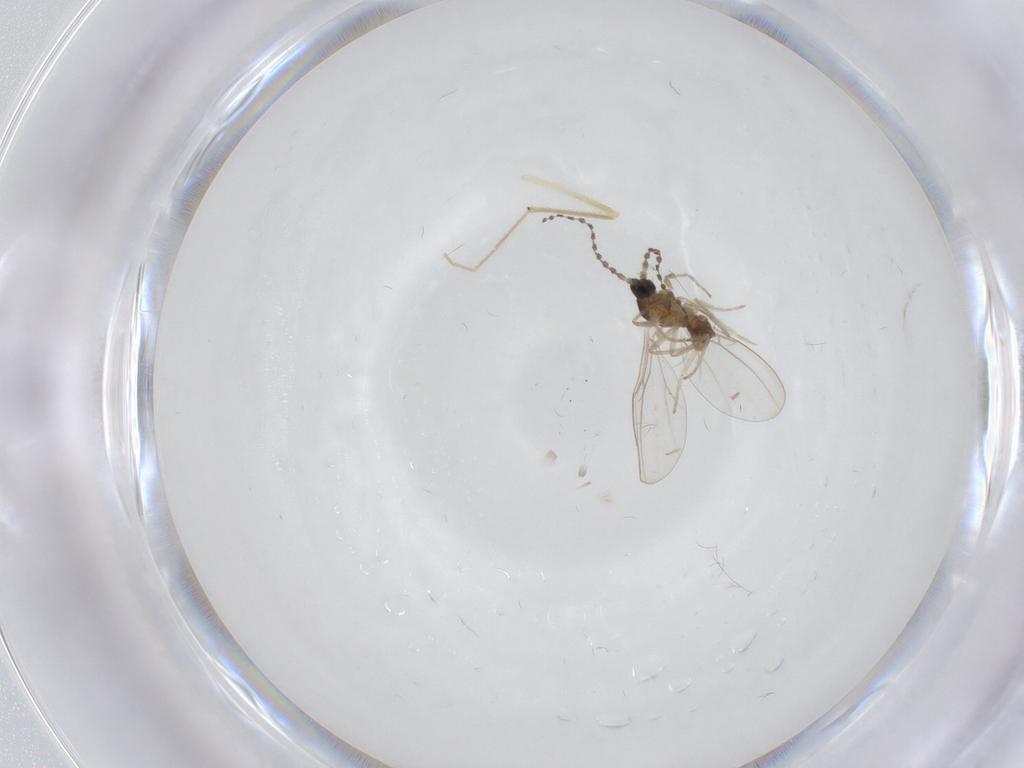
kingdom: Animalia
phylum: Arthropoda
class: Insecta
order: Diptera
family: Cecidomyiidae
